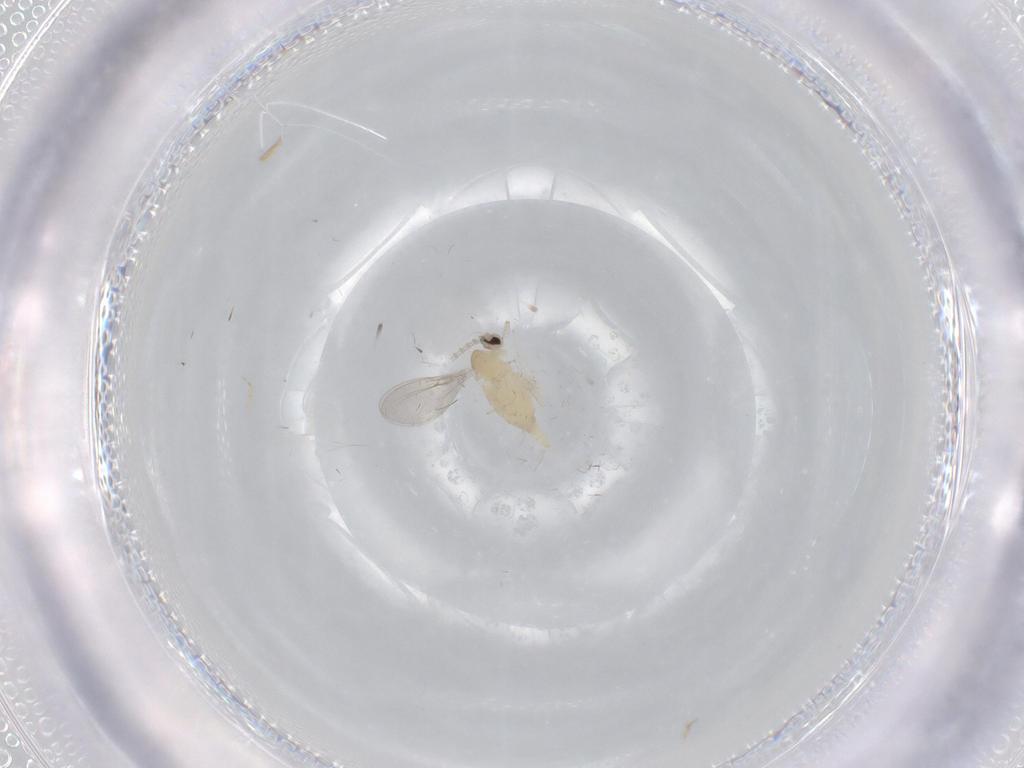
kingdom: Animalia
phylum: Arthropoda
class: Insecta
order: Diptera
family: Cecidomyiidae
